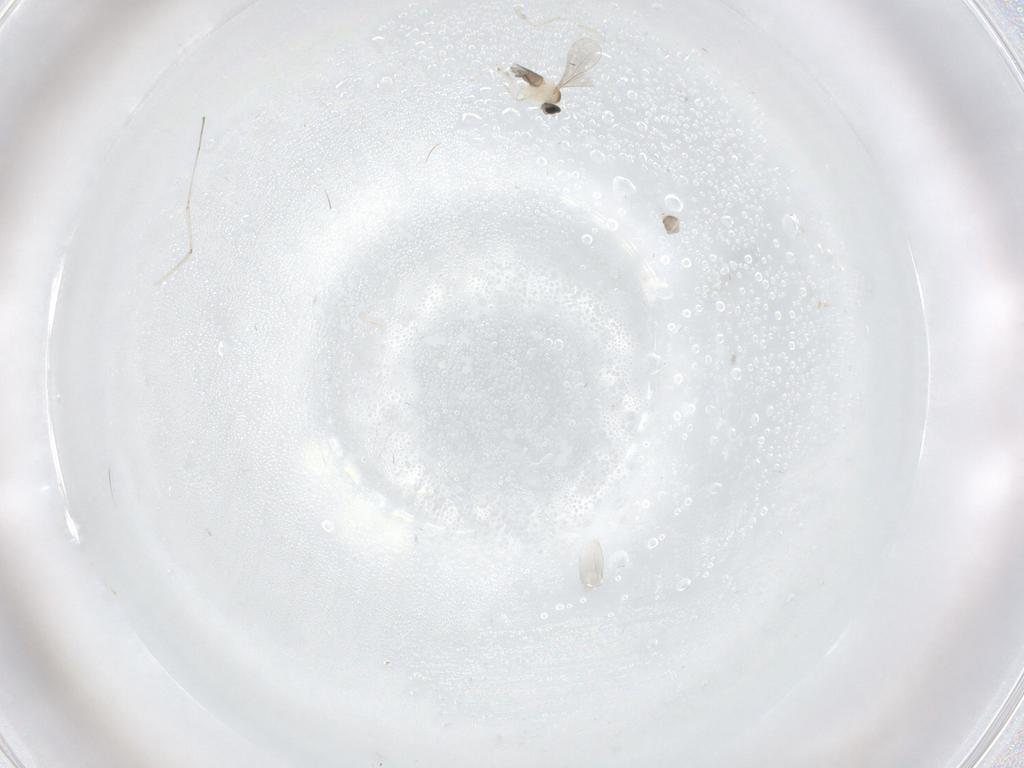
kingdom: Animalia
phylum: Arthropoda
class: Insecta
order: Diptera
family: Cecidomyiidae
